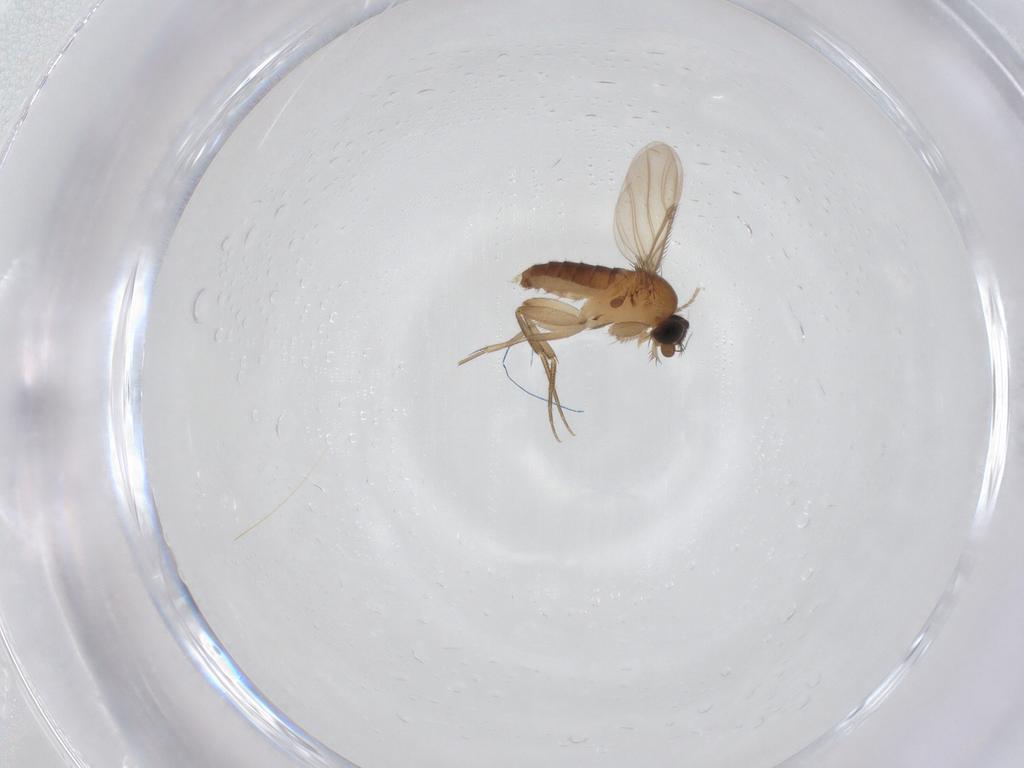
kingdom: Animalia
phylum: Arthropoda
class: Insecta
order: Diptera
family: Phoridae
